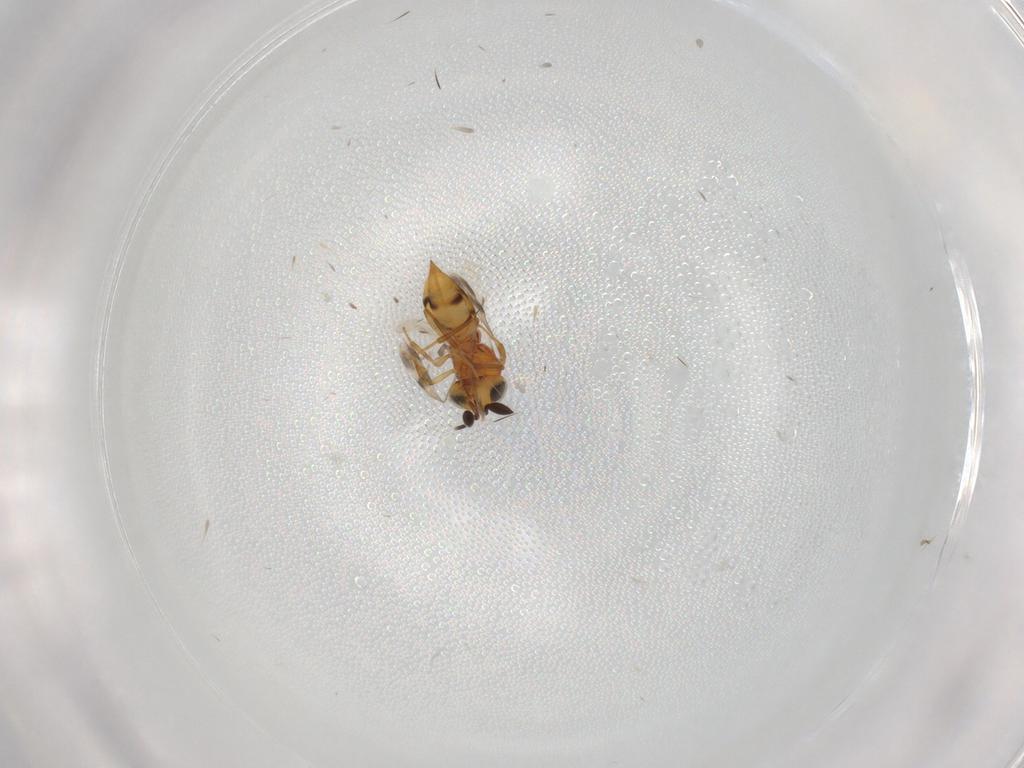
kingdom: Animalia
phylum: Arthropoda
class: Insecta
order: Hymenoptera
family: Scelionidae
